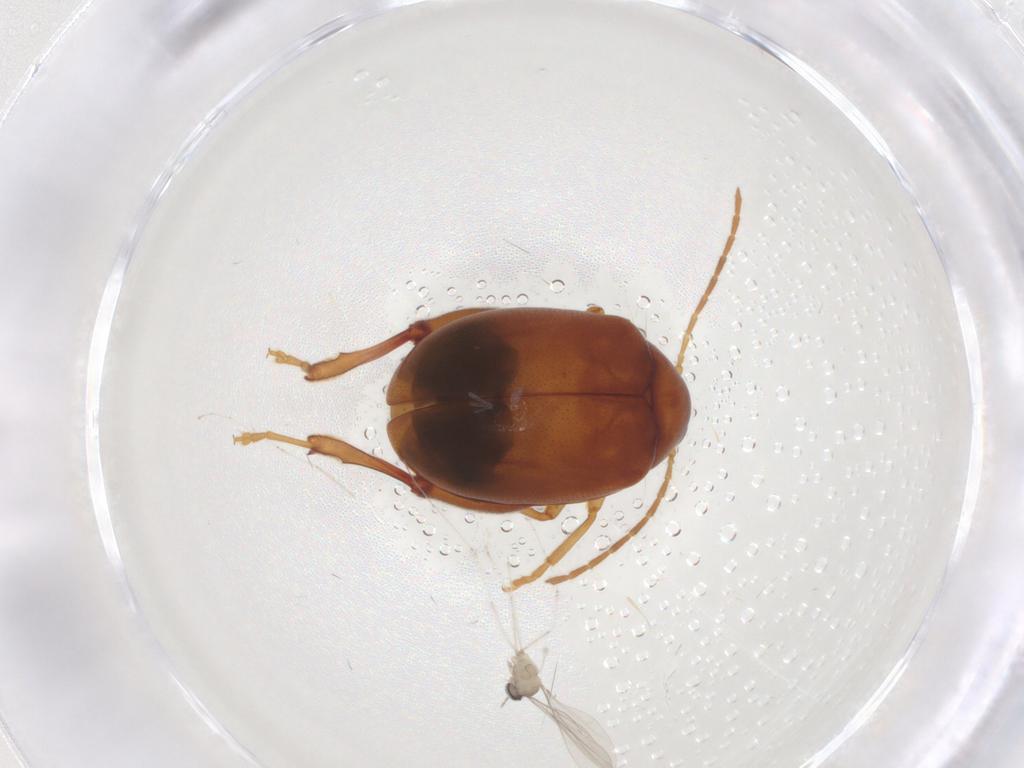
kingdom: Animalia
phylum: Arthropoda
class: Insecta
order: Coleoptera
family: Chrysomelidae
